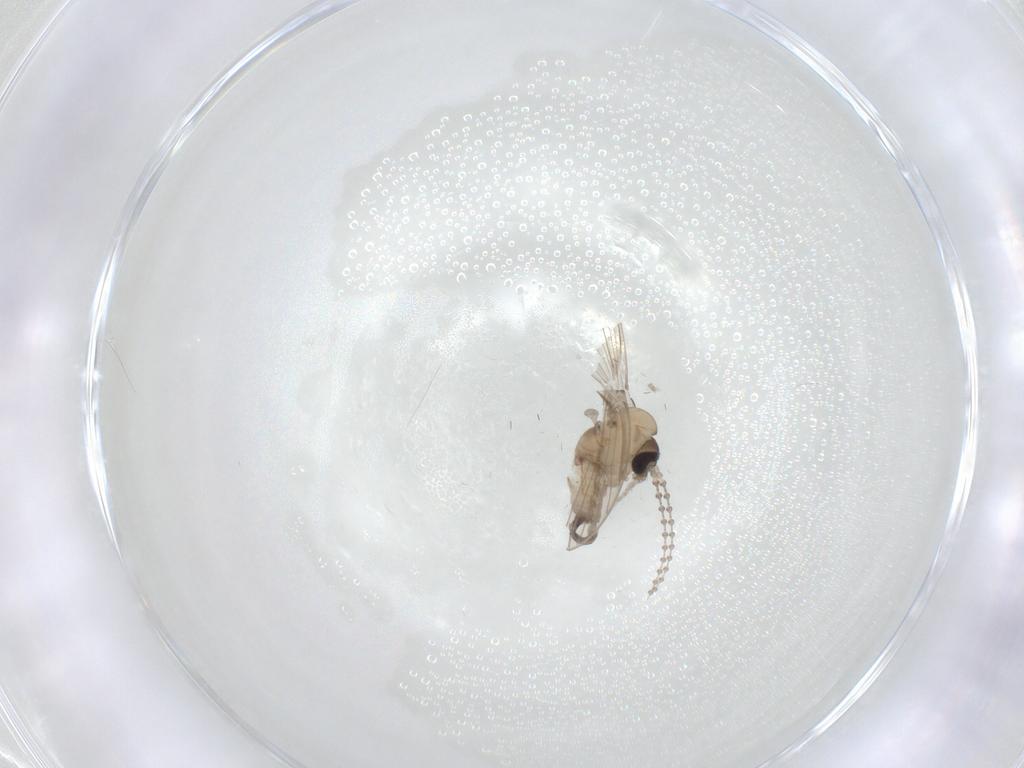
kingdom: Animalia
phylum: Arthropoda
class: Insecta
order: Diptera
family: Psychodidae
